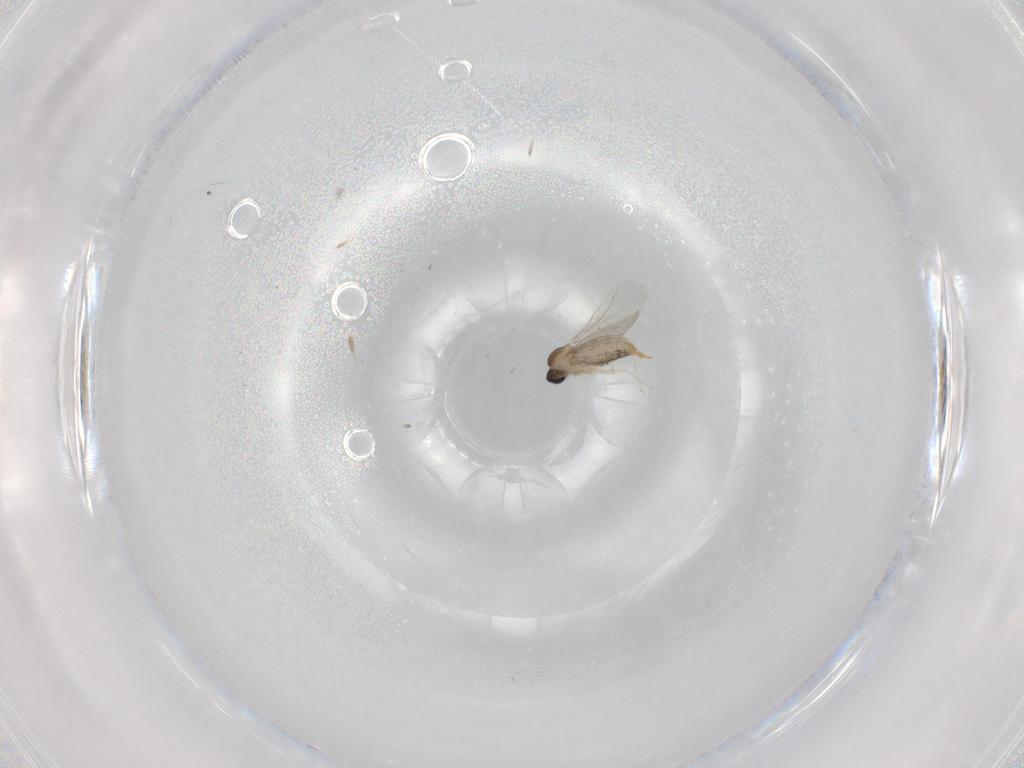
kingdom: Animalia
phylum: Arthropoda
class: Insecta
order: Diptera
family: Cecidomyiidae
